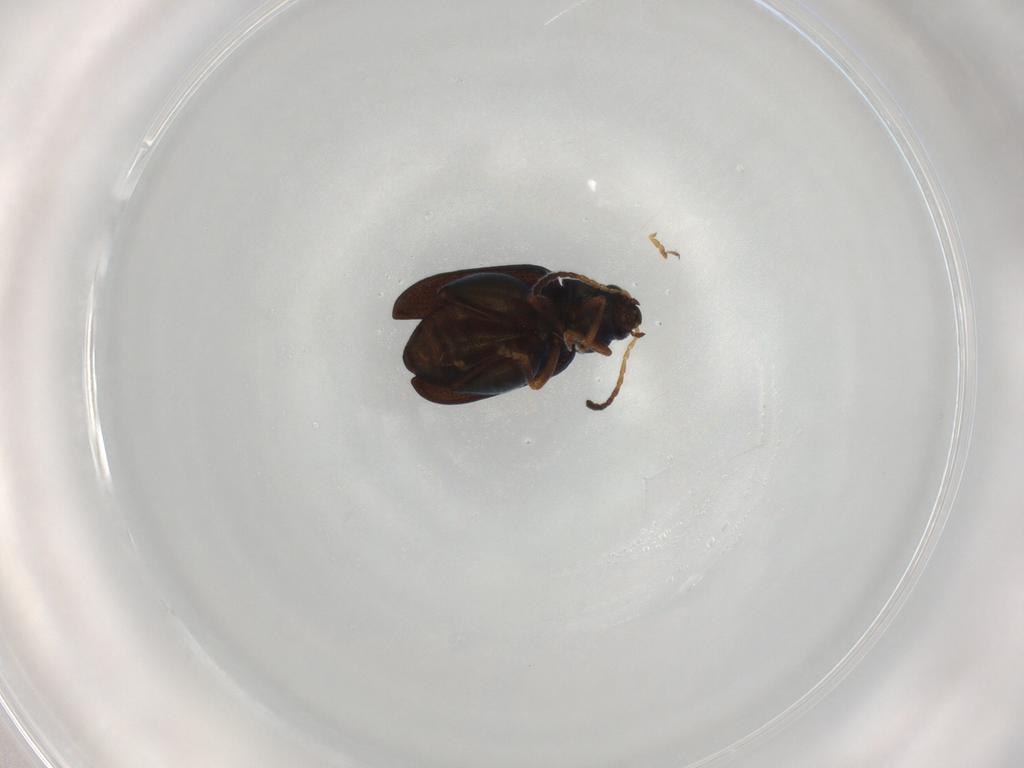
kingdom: Animalia
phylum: Arthropoda
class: Insecta
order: Coleoptera
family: Chrysomelidae
